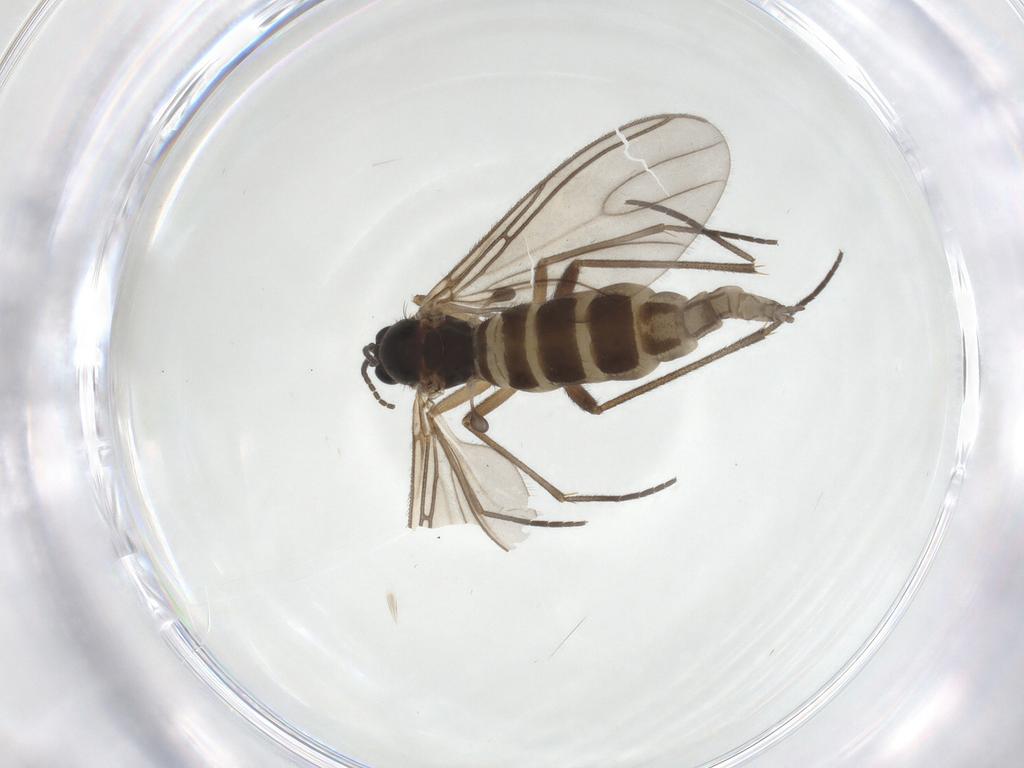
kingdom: Animalia
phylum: Arthropoda
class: Insecta
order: Diptera
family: Sciaridae
